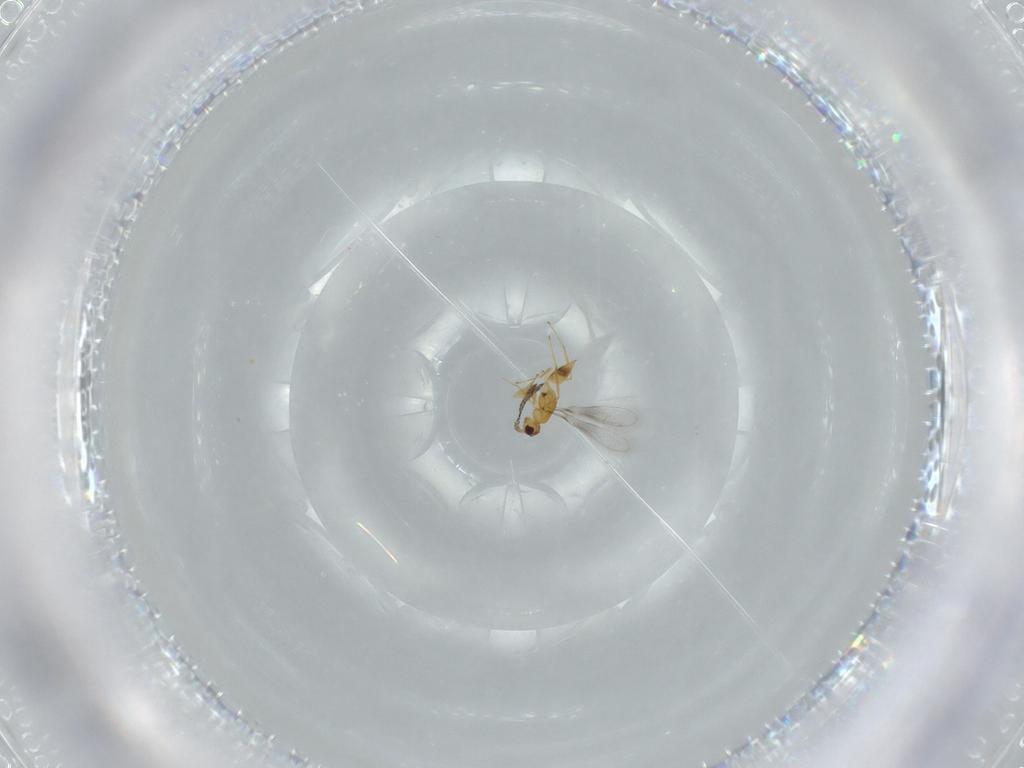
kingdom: Animalia
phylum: Arthropoda
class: Insecta
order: Hymenoptera
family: Mymaridae
